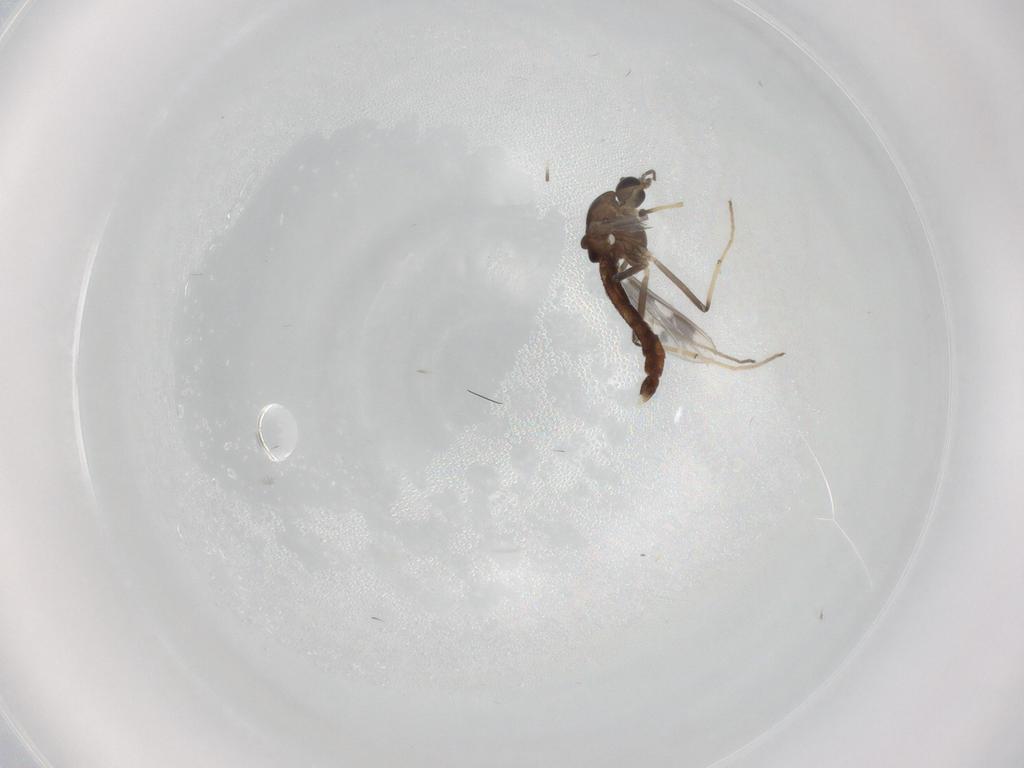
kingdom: Animalia
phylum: Arthropoda
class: Insecta
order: Diptera
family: Chironomidae
